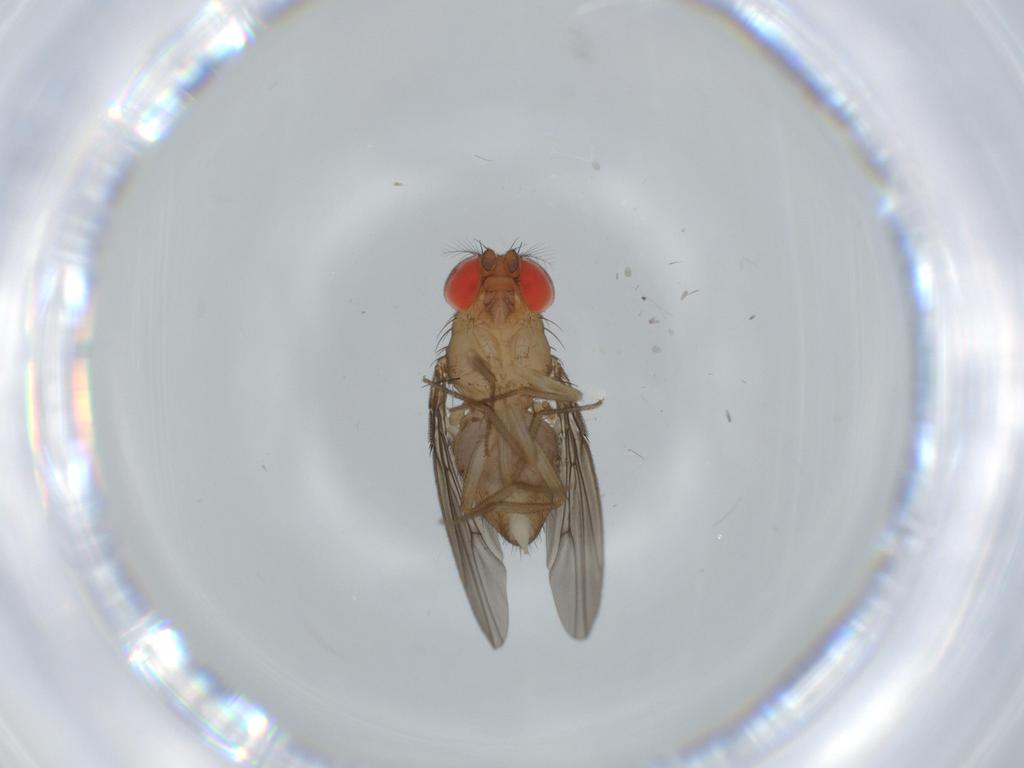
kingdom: Animalia
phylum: Arthropoda
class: Insecta
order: Diptera
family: Drosophilidae
